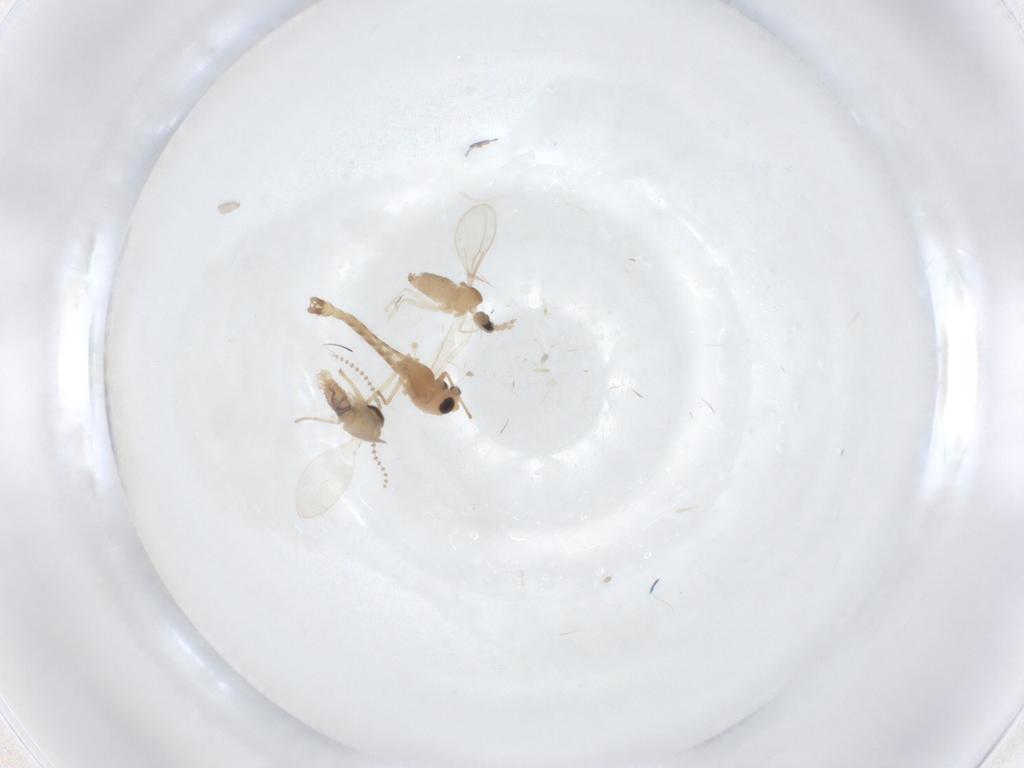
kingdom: Animalia
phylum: Arthropoda
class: Insecta
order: Diptera
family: Chironomidae
